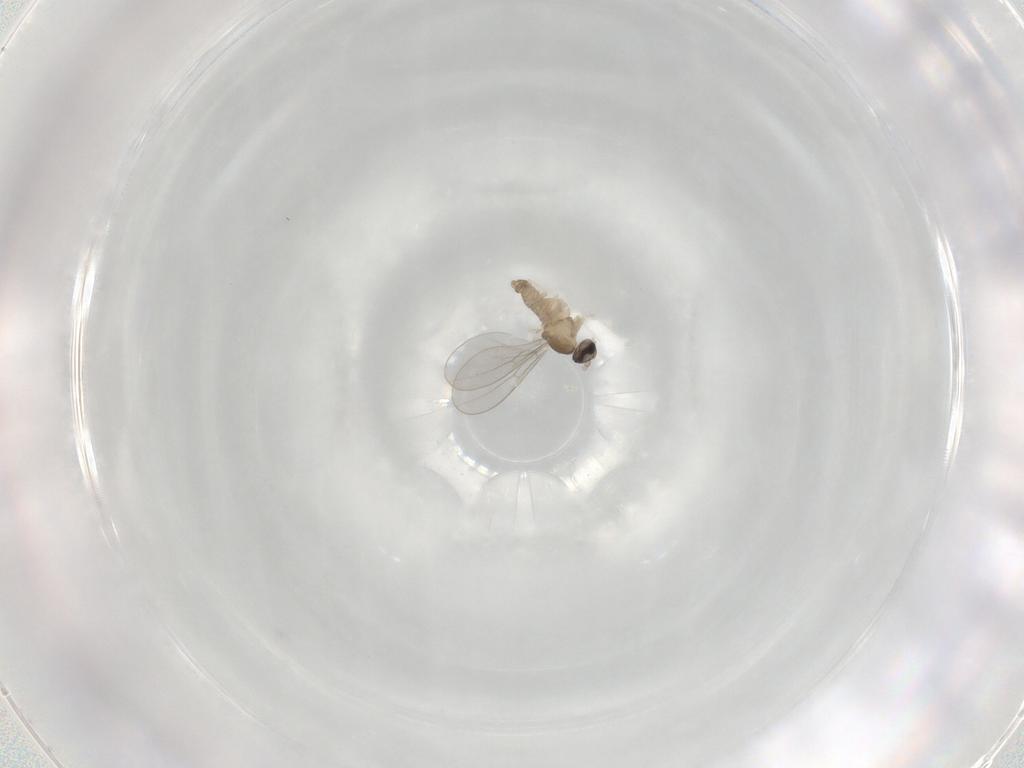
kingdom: Animalia
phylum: Arthropoda
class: Insecta
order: Diptera
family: Cecidomyiidae
